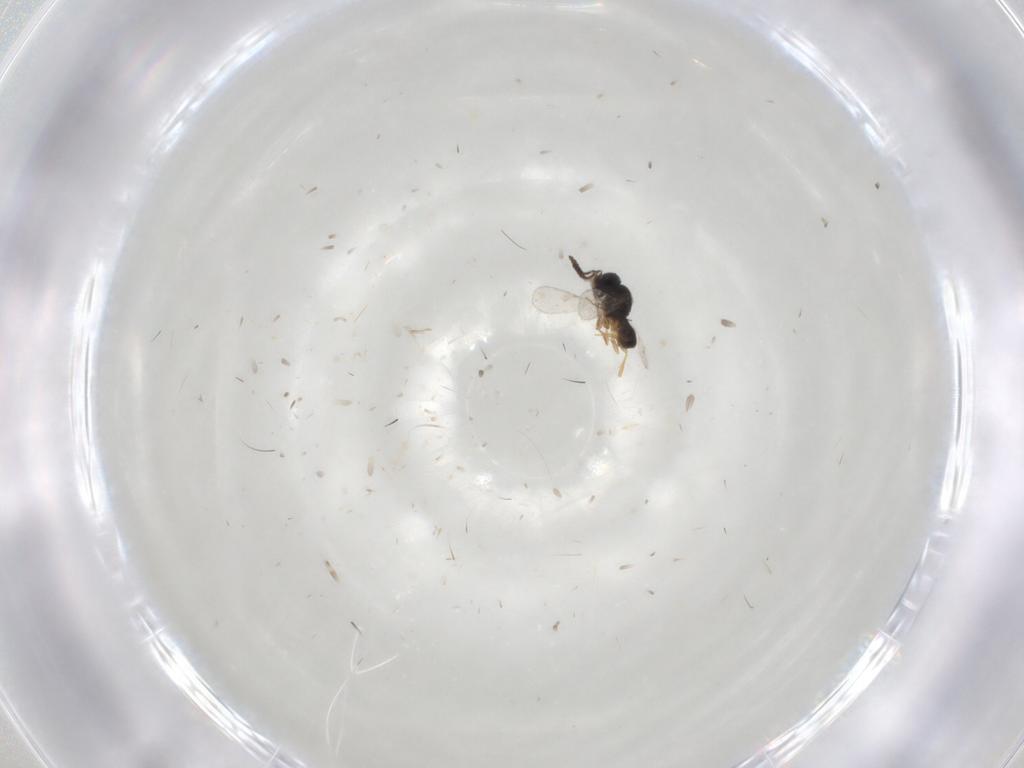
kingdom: Animalia
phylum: Arthropoda
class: Insecta
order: Hymenoptera
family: Scelionidae
